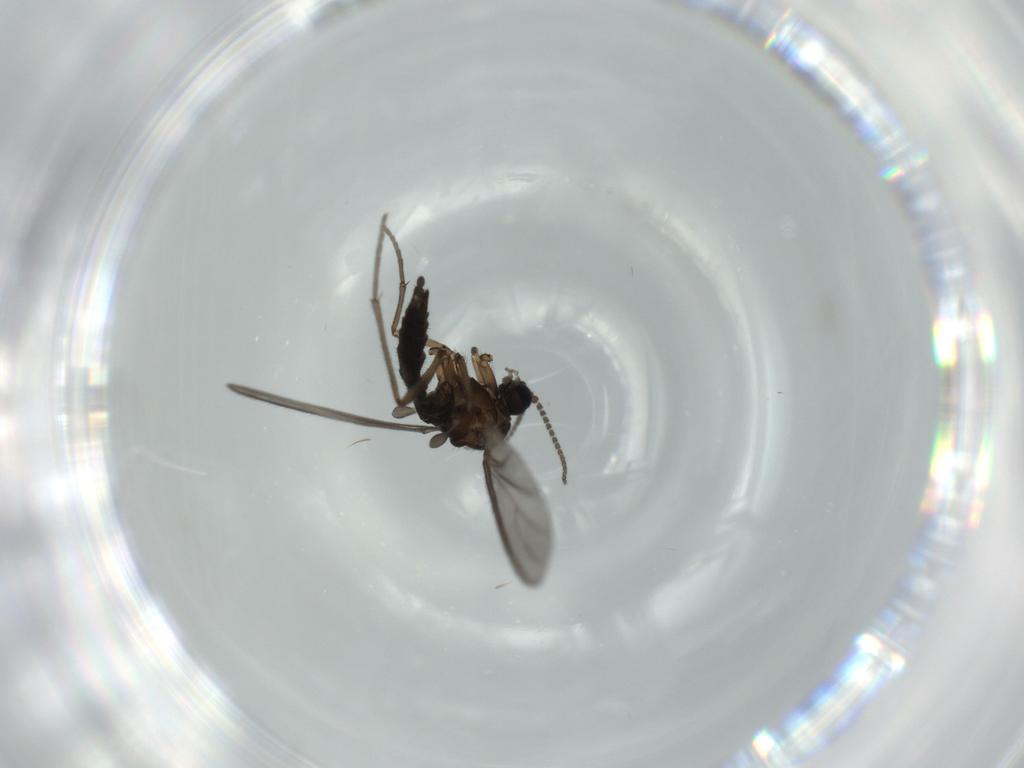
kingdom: Animalia
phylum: Arthropoda
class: Insecta
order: Diptera
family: Sciaridae
